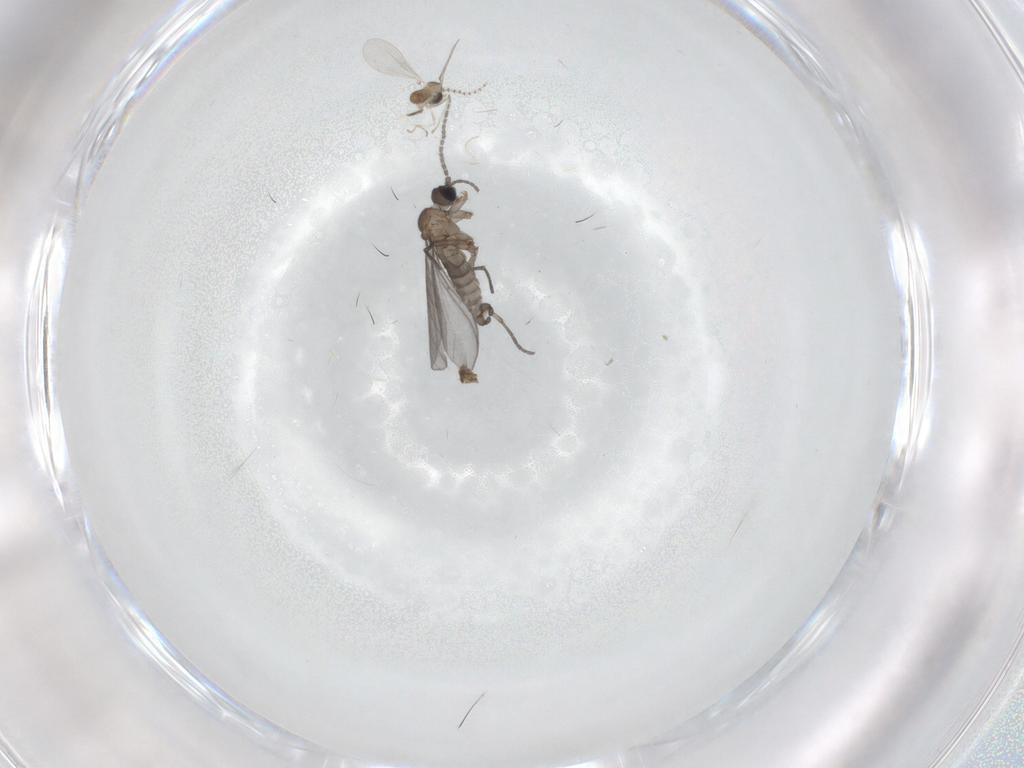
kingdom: Animalia
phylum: Arthropoda
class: Insecta
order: Diptera
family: Sciaridae
